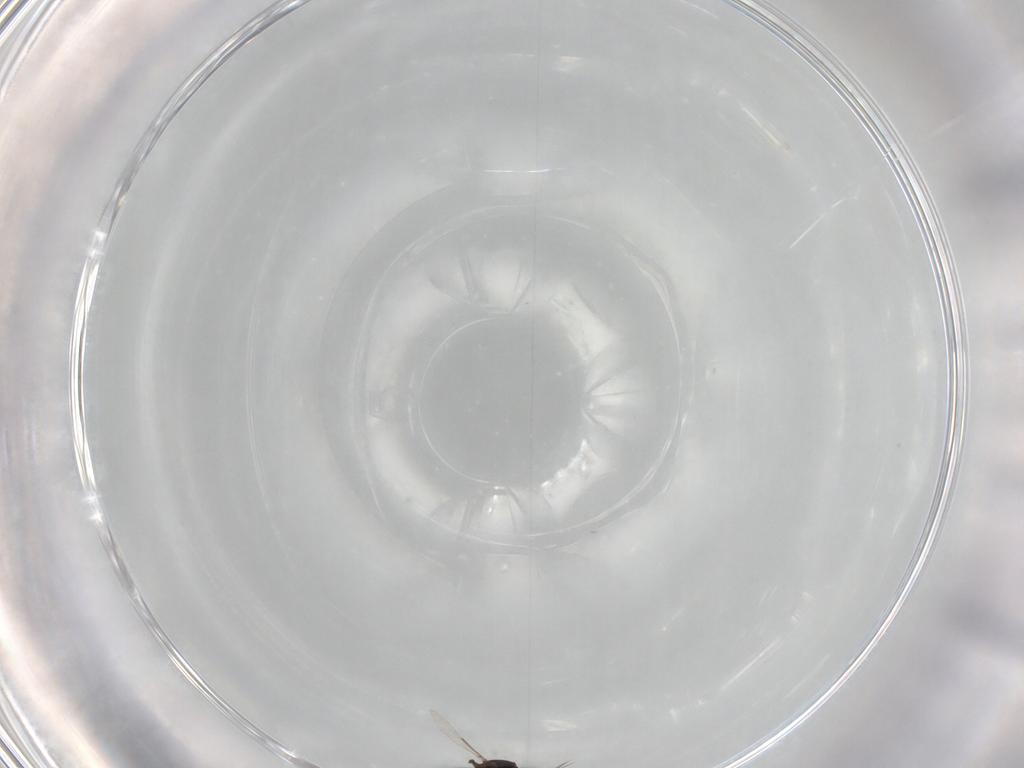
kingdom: Animalia
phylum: Arthropoda
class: Insecta
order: Diptera
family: Ceratopogonidae
